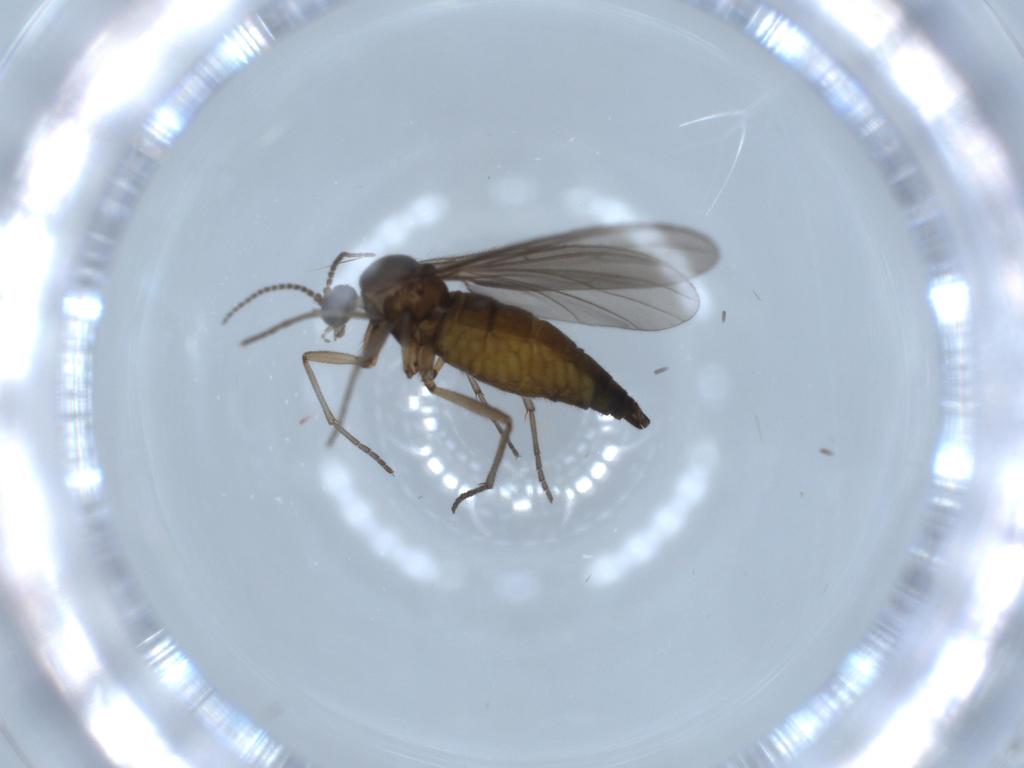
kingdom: Animalia
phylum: Arthropoda
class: Insecta
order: Diptera
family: Sciaridae
